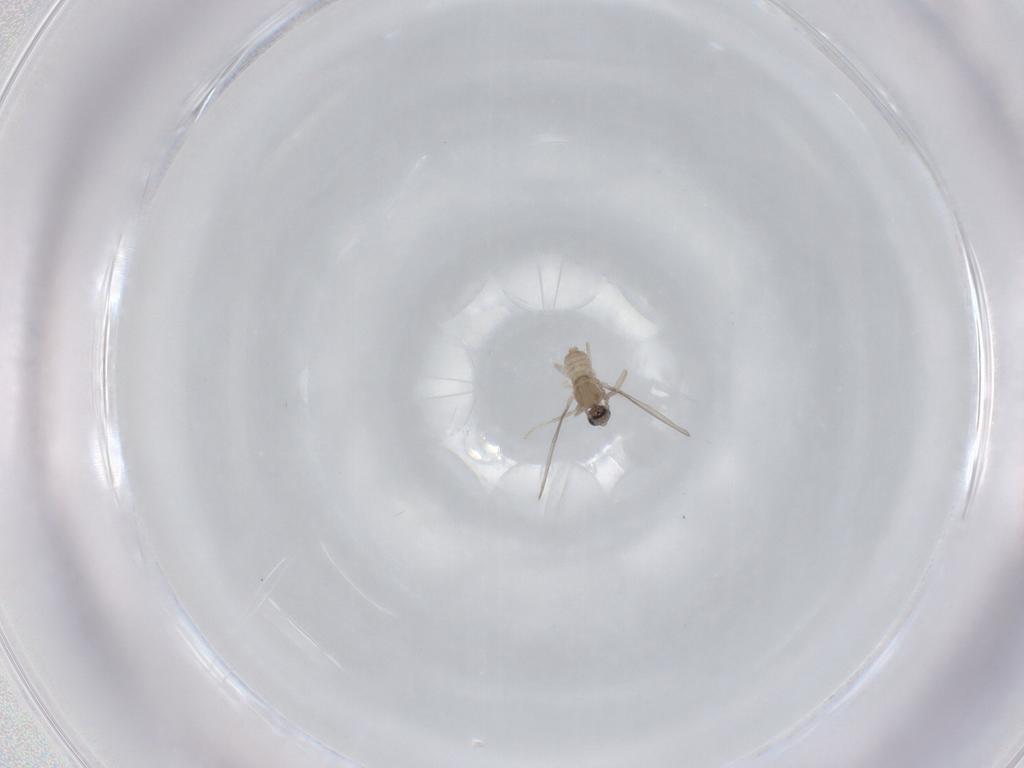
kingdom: Animalia
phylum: Arthropoda
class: Insecta
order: Diptera
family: Cecidomyiidae
